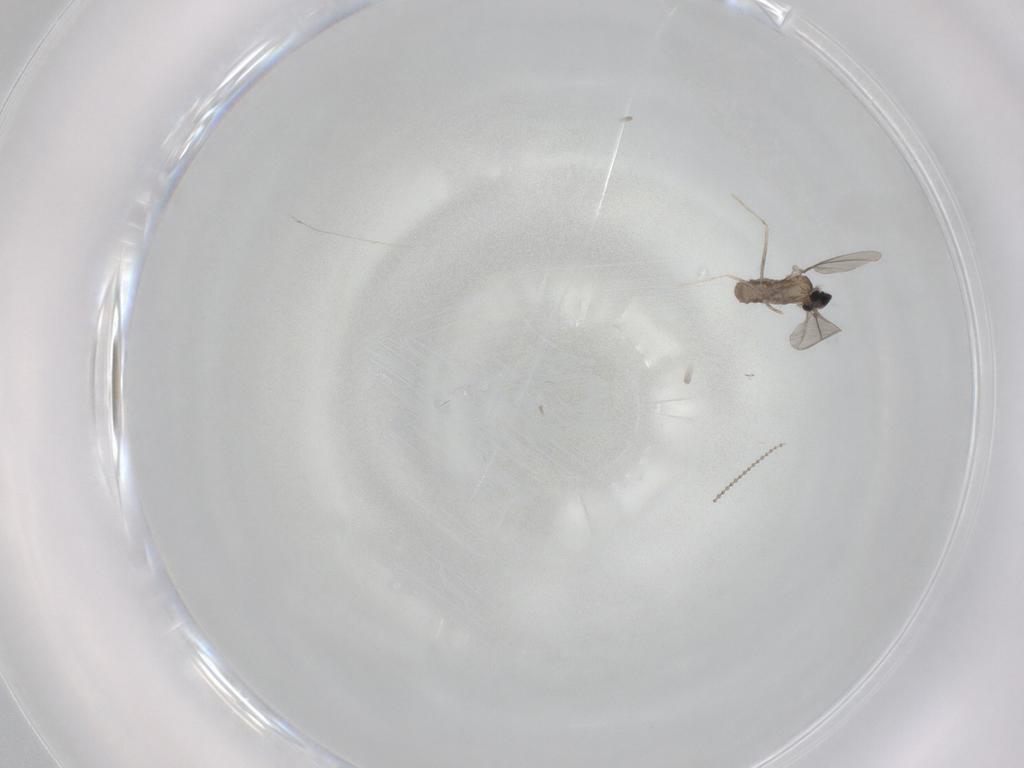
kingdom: Animalia
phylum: Arthropoda
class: Insecta
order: Diptera
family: Cecidomyiidae
